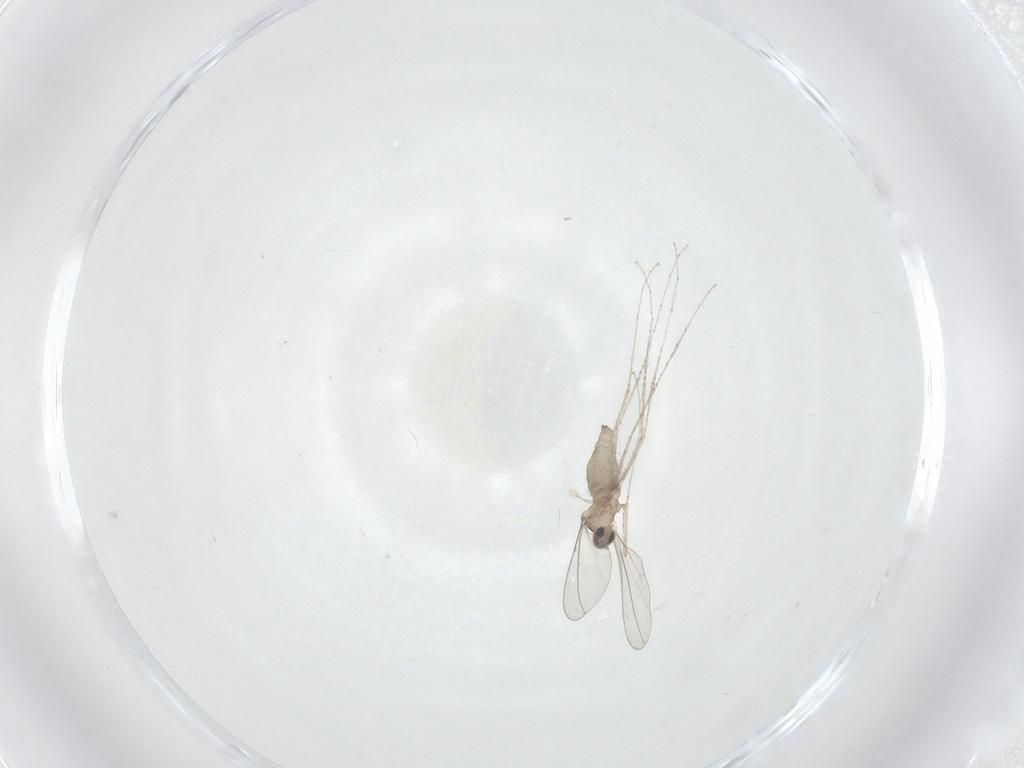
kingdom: Animalia
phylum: Arthropoda
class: Insecta
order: Diptera
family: Cecidomyiidae
